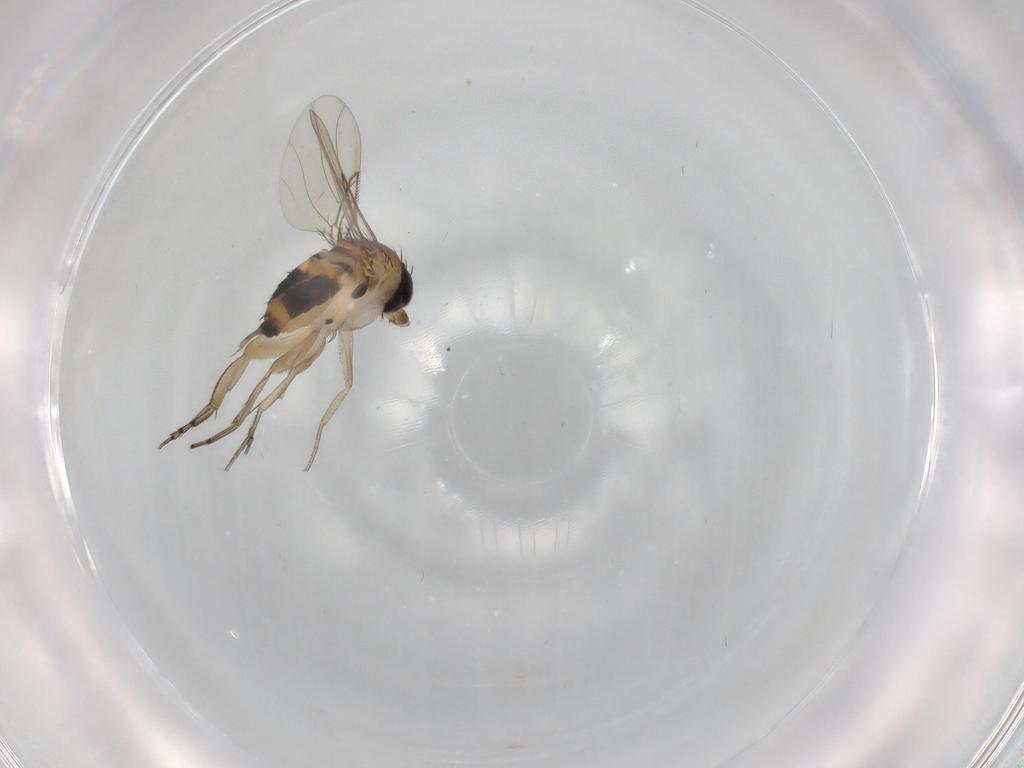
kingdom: Animalia
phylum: Arthropoda
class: Insecta
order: Diptera
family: Phoridae
